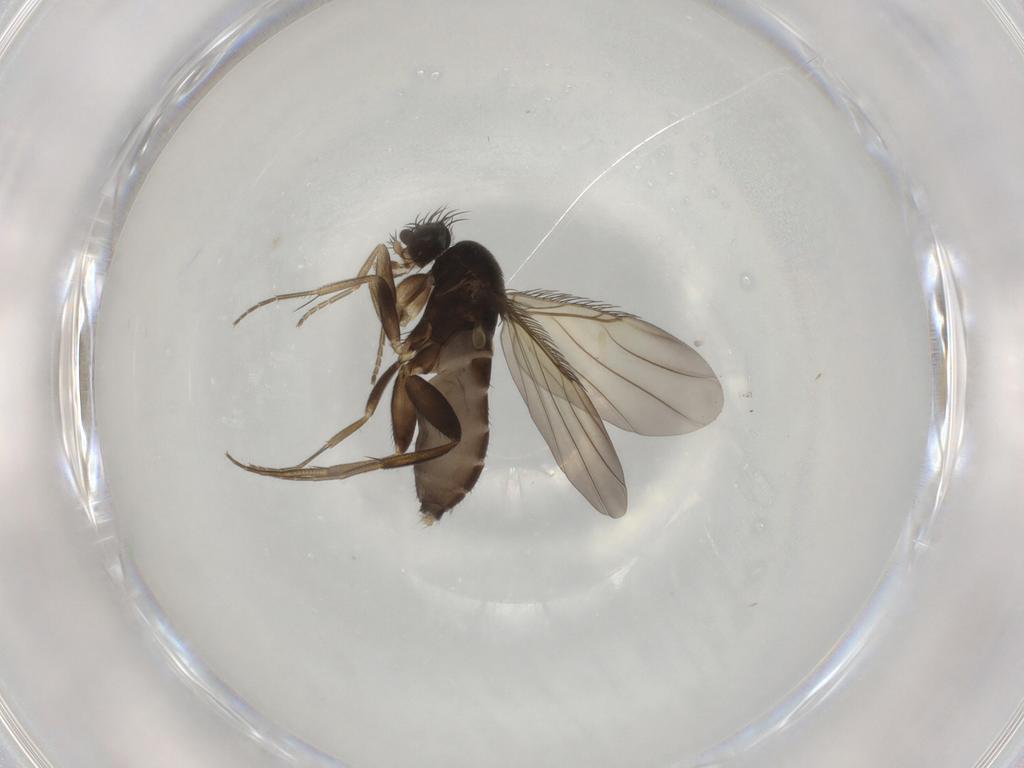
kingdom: Animalia
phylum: Arthropoda
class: Insecta
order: Diptera
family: Phoridae
